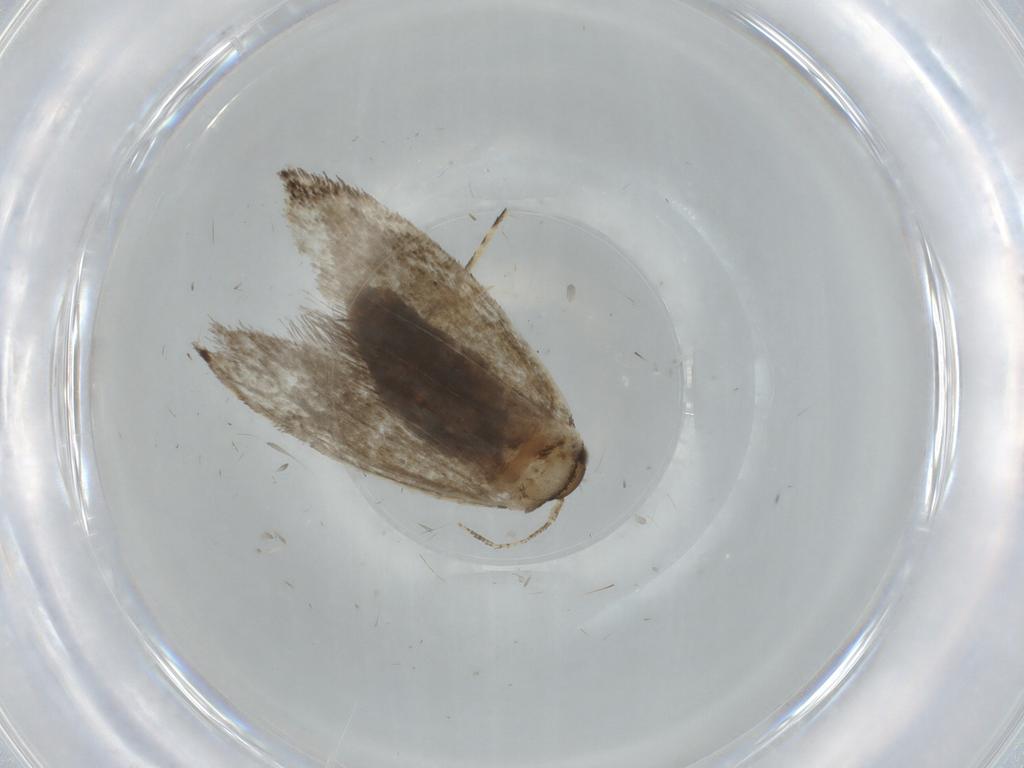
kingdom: Animalia
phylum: Arthropoda
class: Insecta
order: Lepidoptera
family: Tineidae
